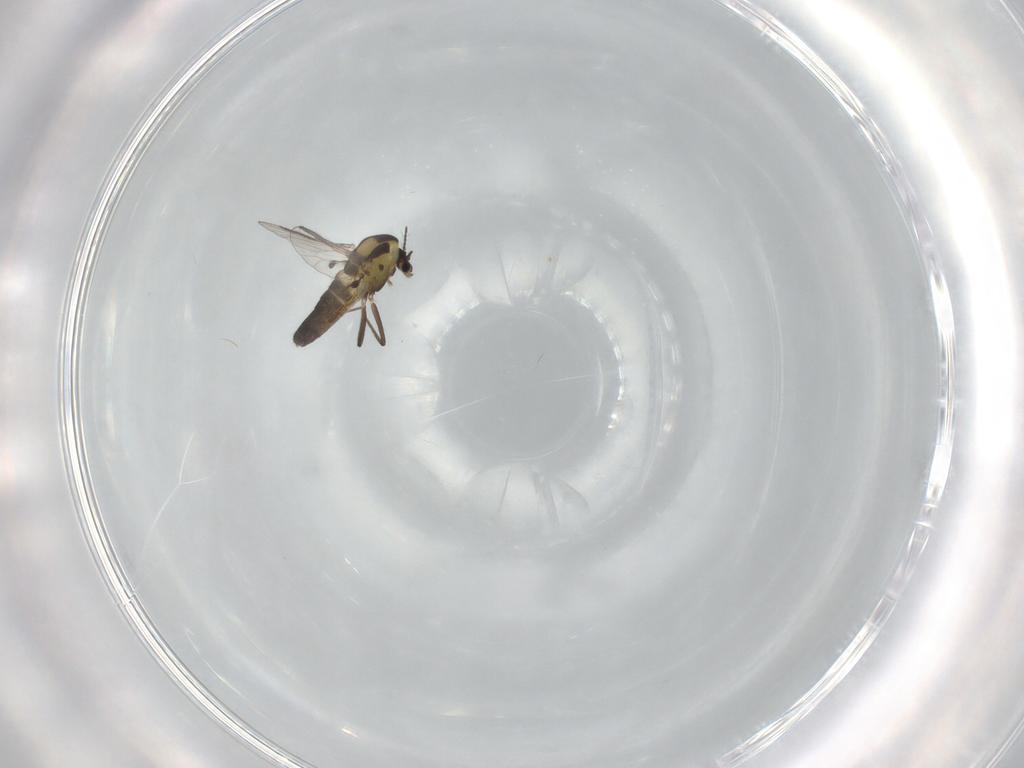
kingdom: Animalia
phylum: Arthropoda
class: Insecta
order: Diptera
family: Chironomidae
